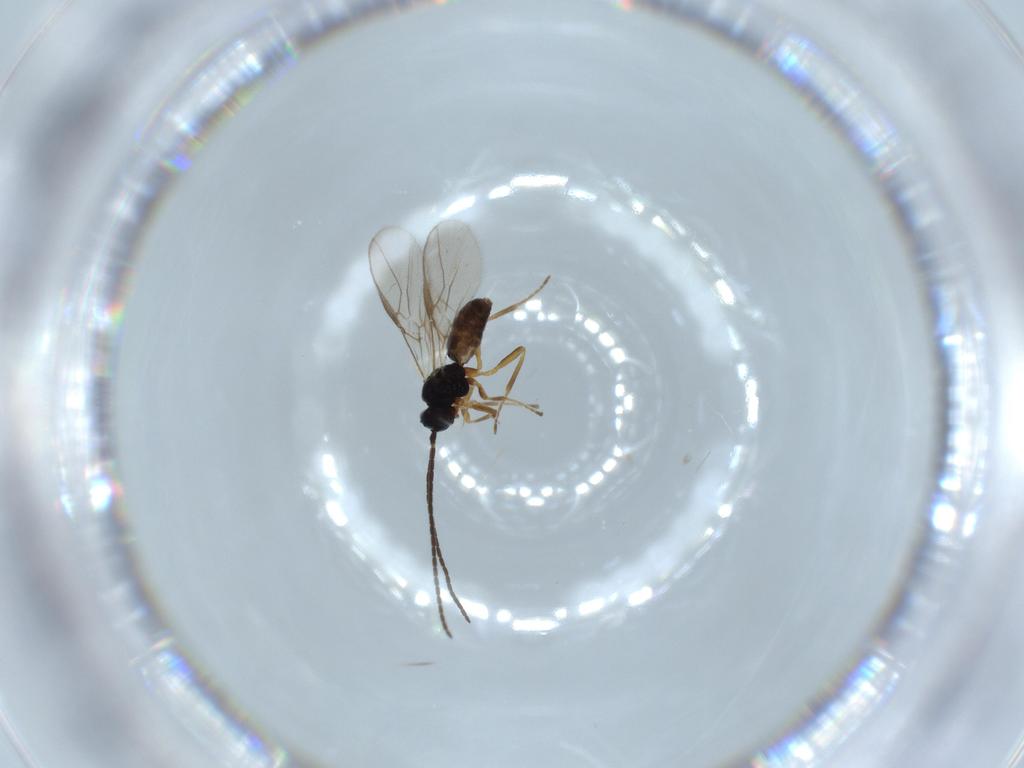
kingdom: Animalia
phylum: Arthropoda
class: Insecta
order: Hymenoptera
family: Braconidae
